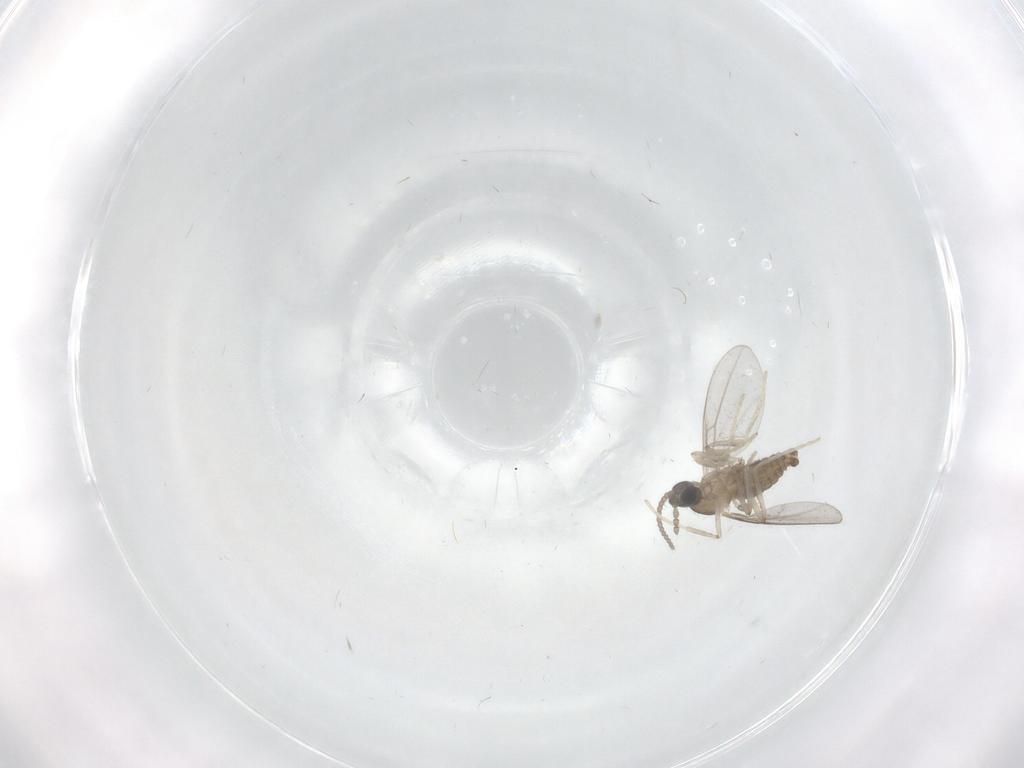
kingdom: Animalia
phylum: Arthropoda
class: Insecta
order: Diptera
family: Cecidomyiidae
